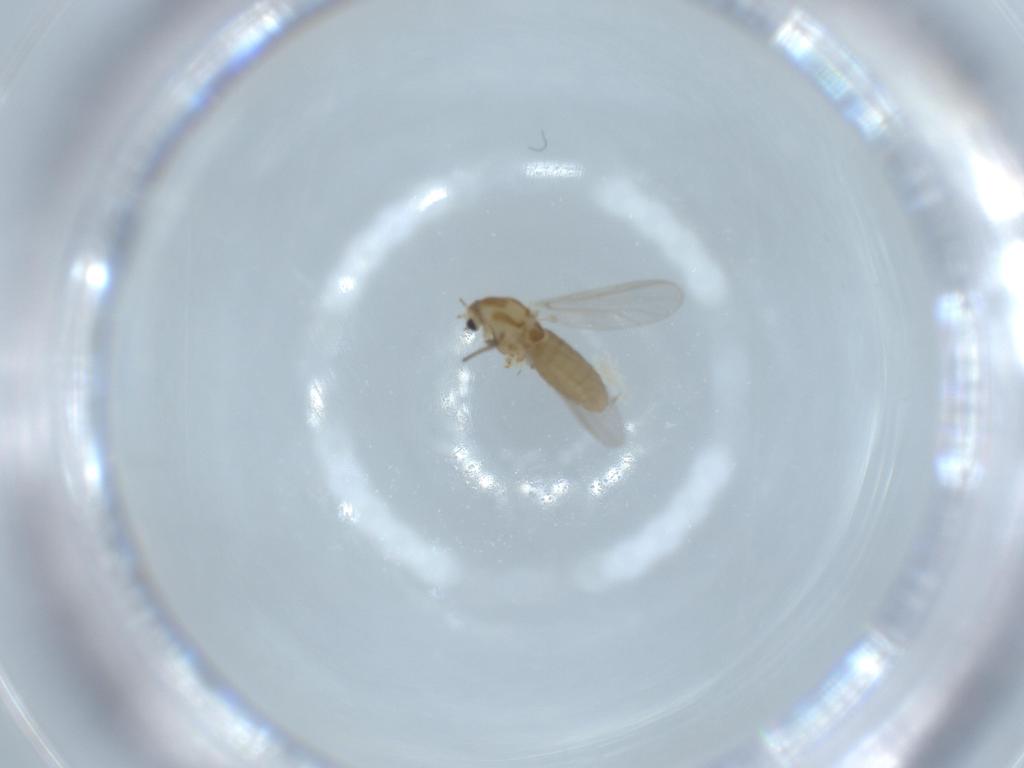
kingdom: Animalia
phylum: Arthropoda
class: Insecta
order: Diptera
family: Chironomidae
